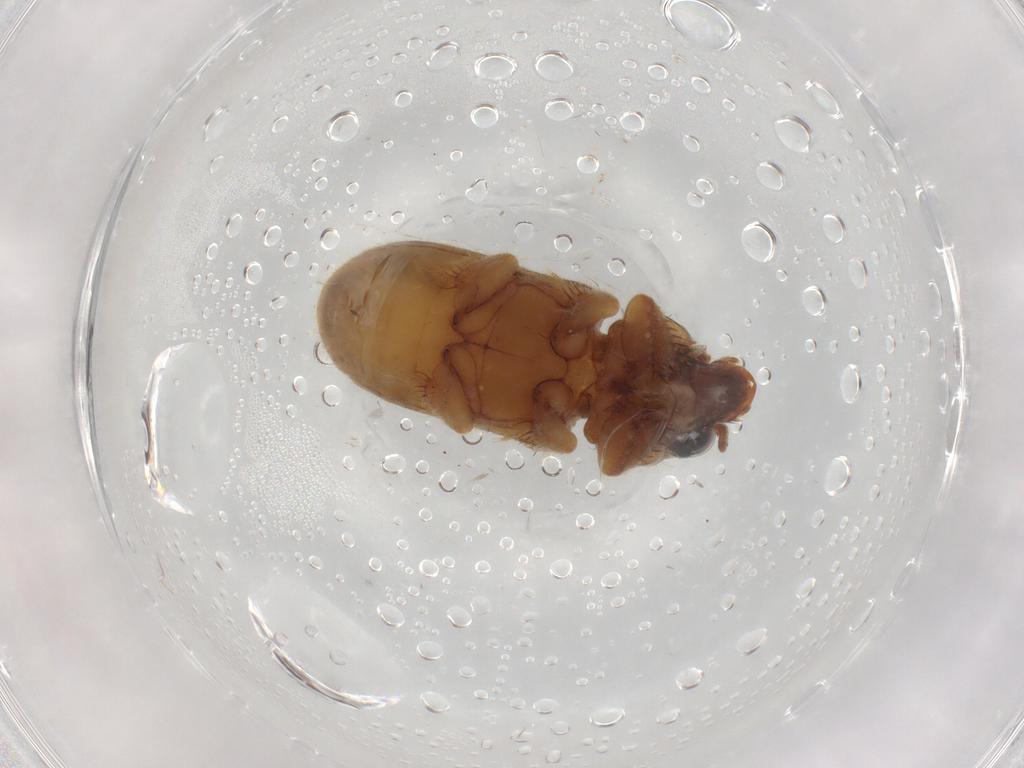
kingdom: Animalia
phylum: Arthropoda
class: Insecta
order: Coleoptera
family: Heteroceridae
